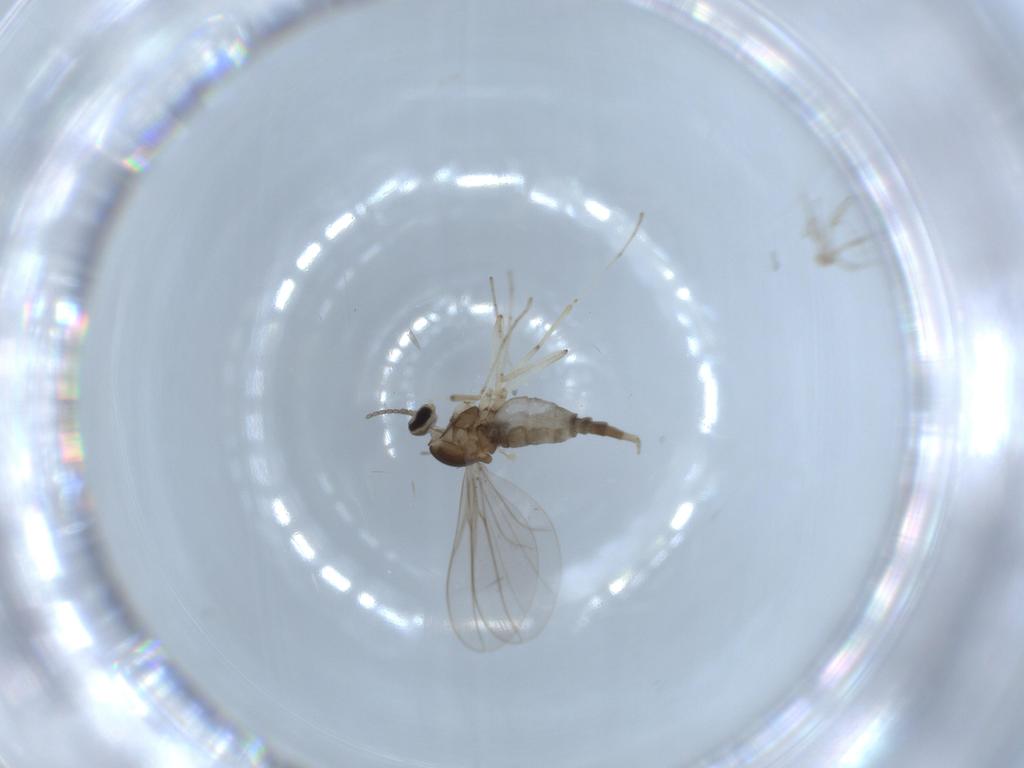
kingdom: Animalia
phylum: Arthropoda
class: Insecta
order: Diptera
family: Cecidomyiidae
